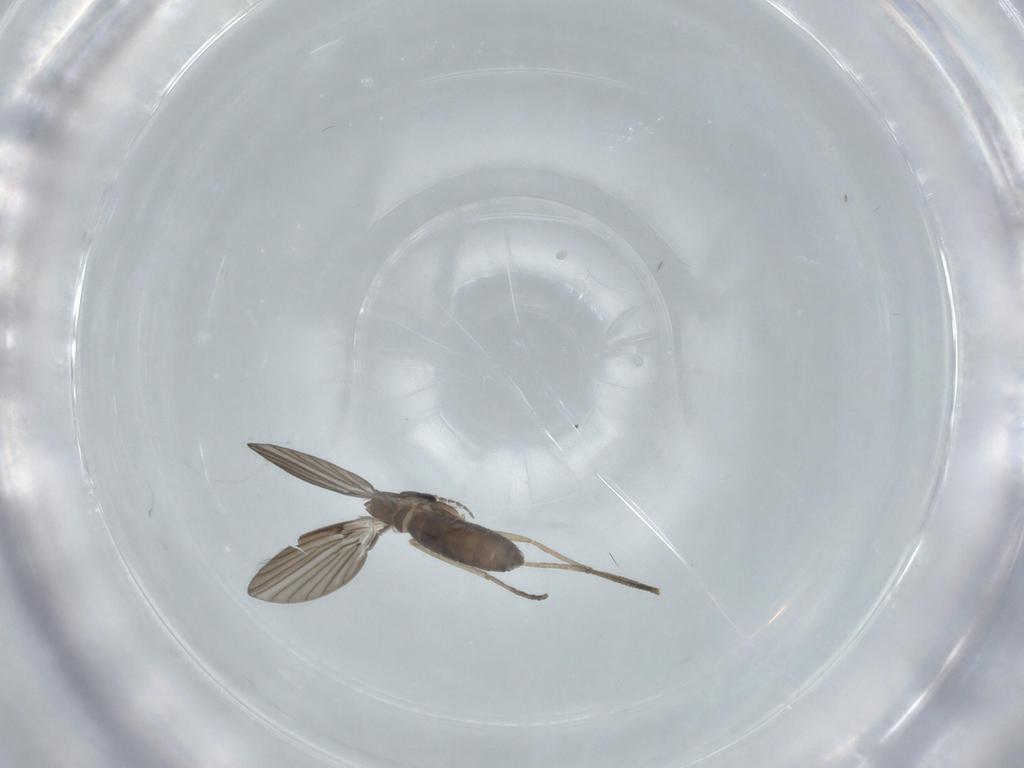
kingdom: Animalia
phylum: Arthropoda
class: Insecta
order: Diptera
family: Psychodidae
